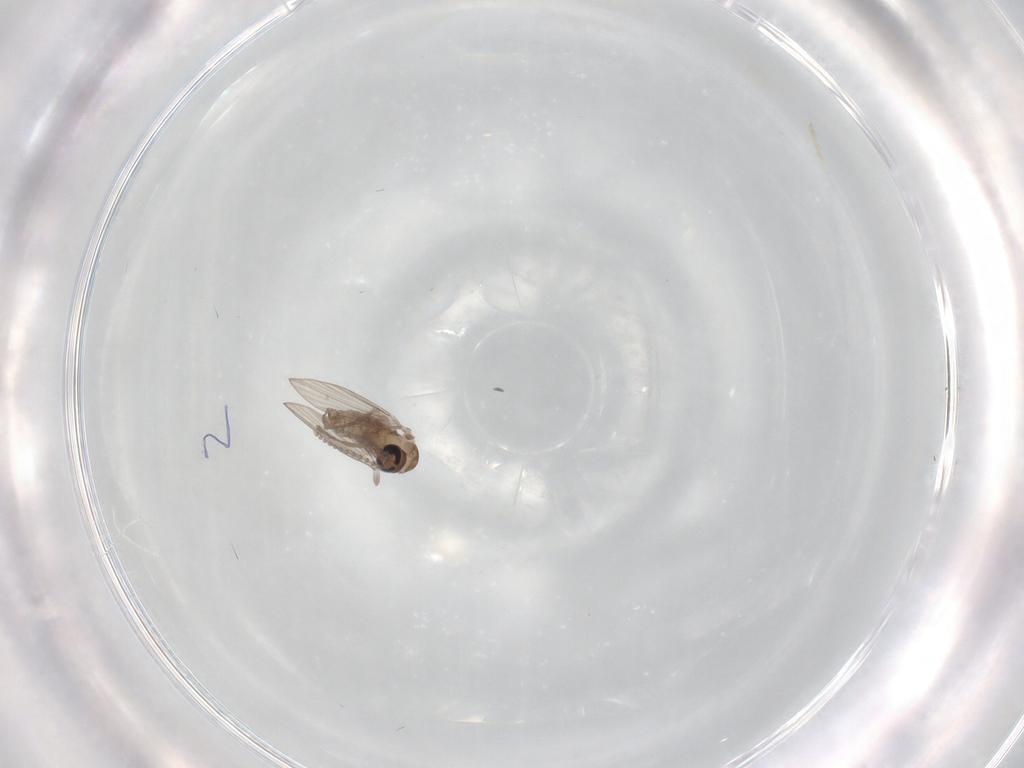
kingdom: Animalia
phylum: Arthropoda
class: Insecta
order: Diptera
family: Psychodidae
